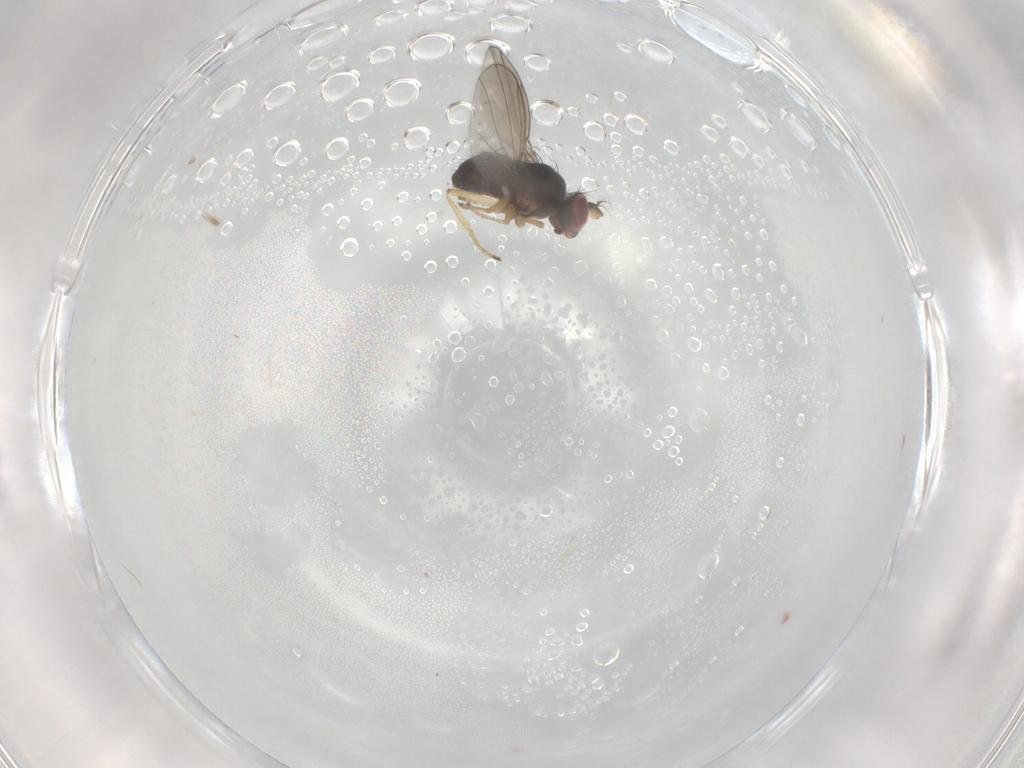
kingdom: Animalia
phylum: Arthropoda
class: Insecta
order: Diptera
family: Ephydridae
